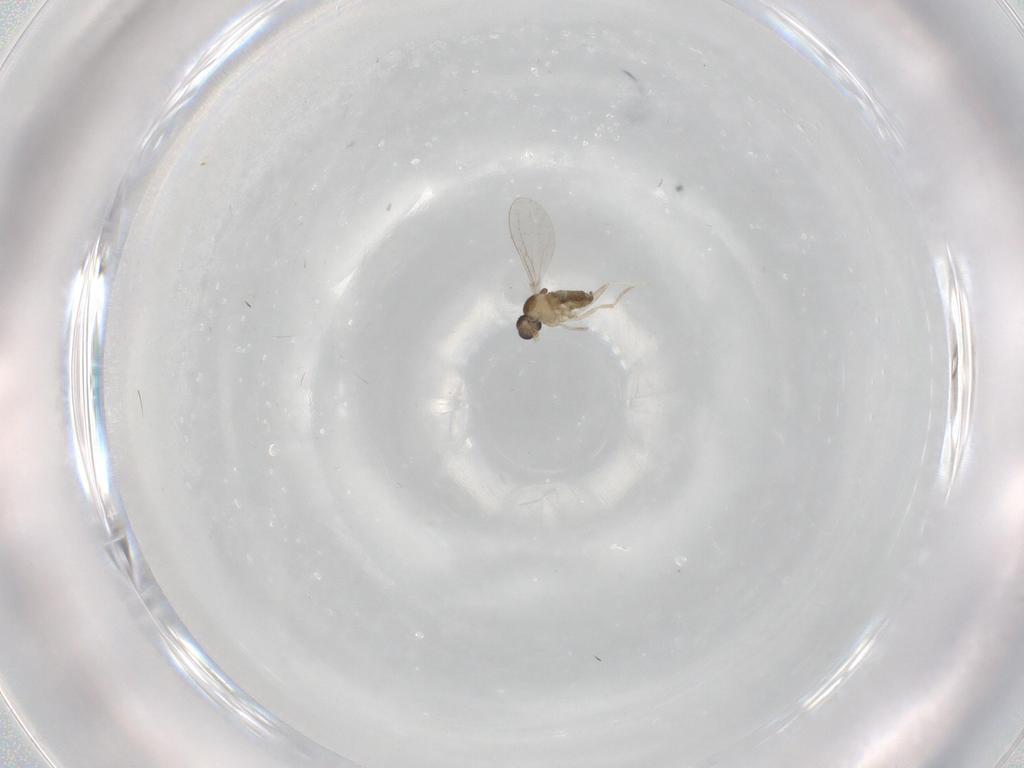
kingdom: Animalia
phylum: Arthropoda
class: Insecta
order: Diptera
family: Cecidomyiidae
